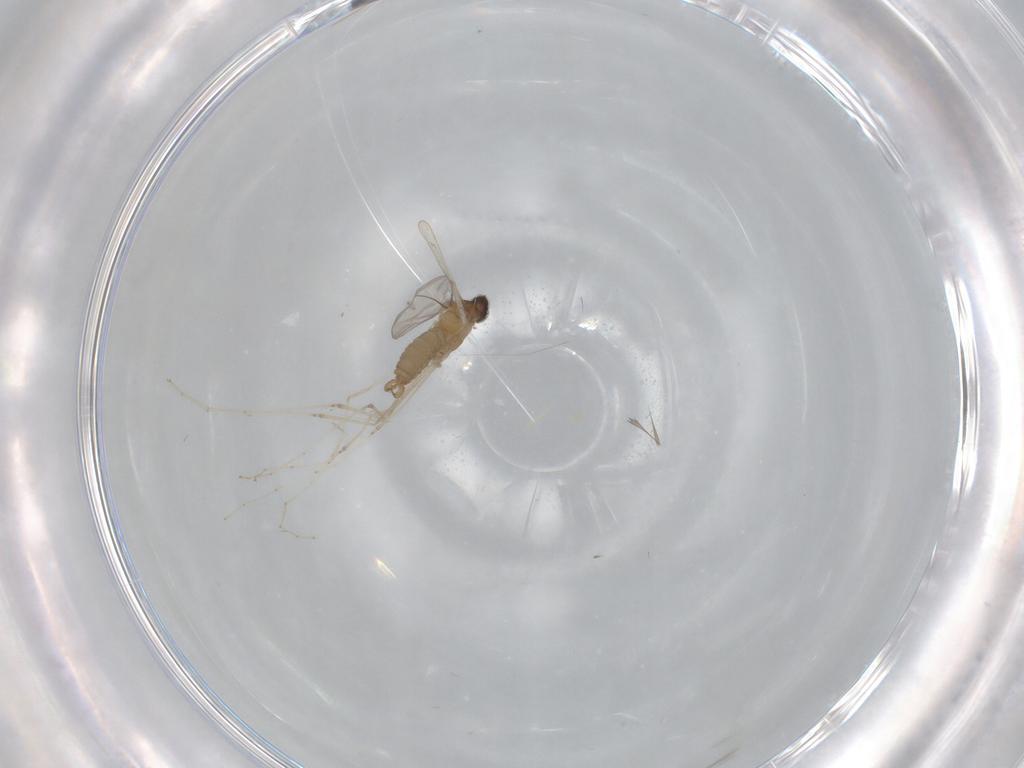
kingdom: Animalia
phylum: Arthropoda
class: Insecta
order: Diptera
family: Cecidomyiidae
